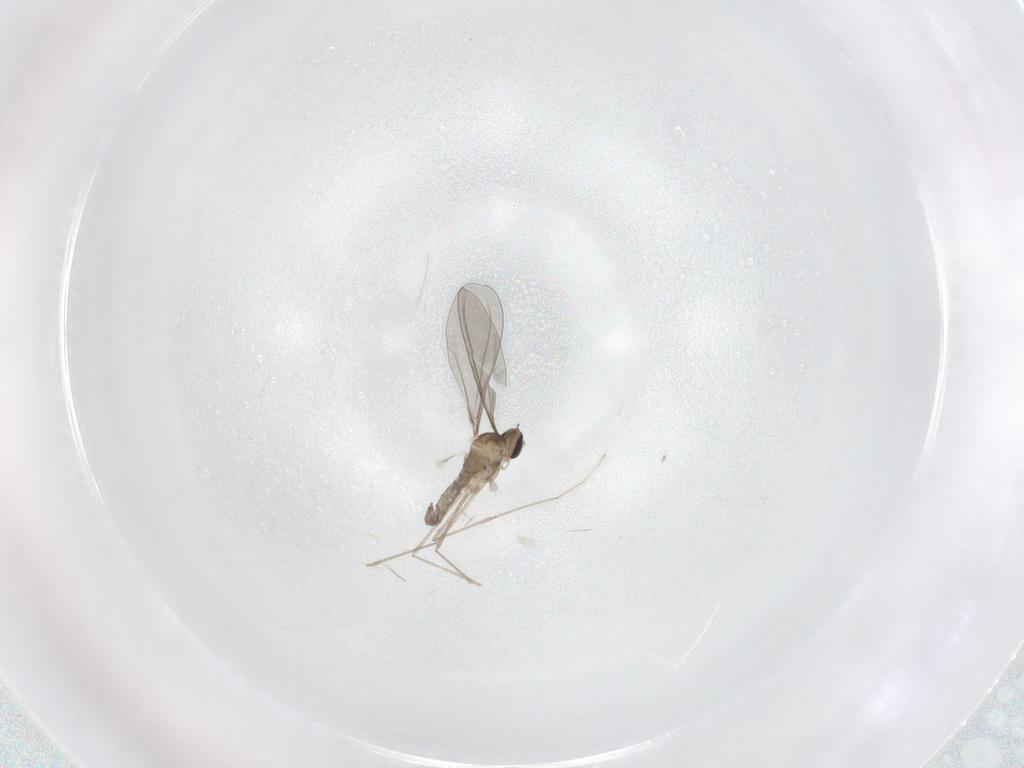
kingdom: Animalia
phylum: Arthropoda
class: Insecta
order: Diptera
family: Cecidomyiidae
